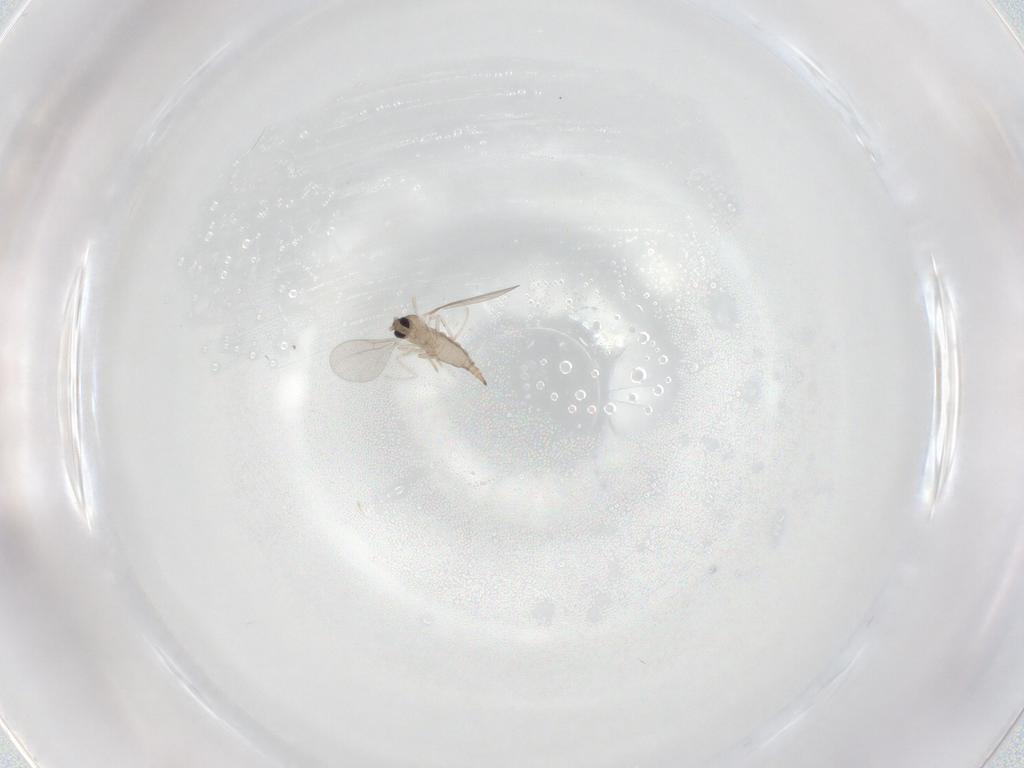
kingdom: Animalia
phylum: Arthropoda
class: Insecta
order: Diptera
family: Cecidomyiidae
